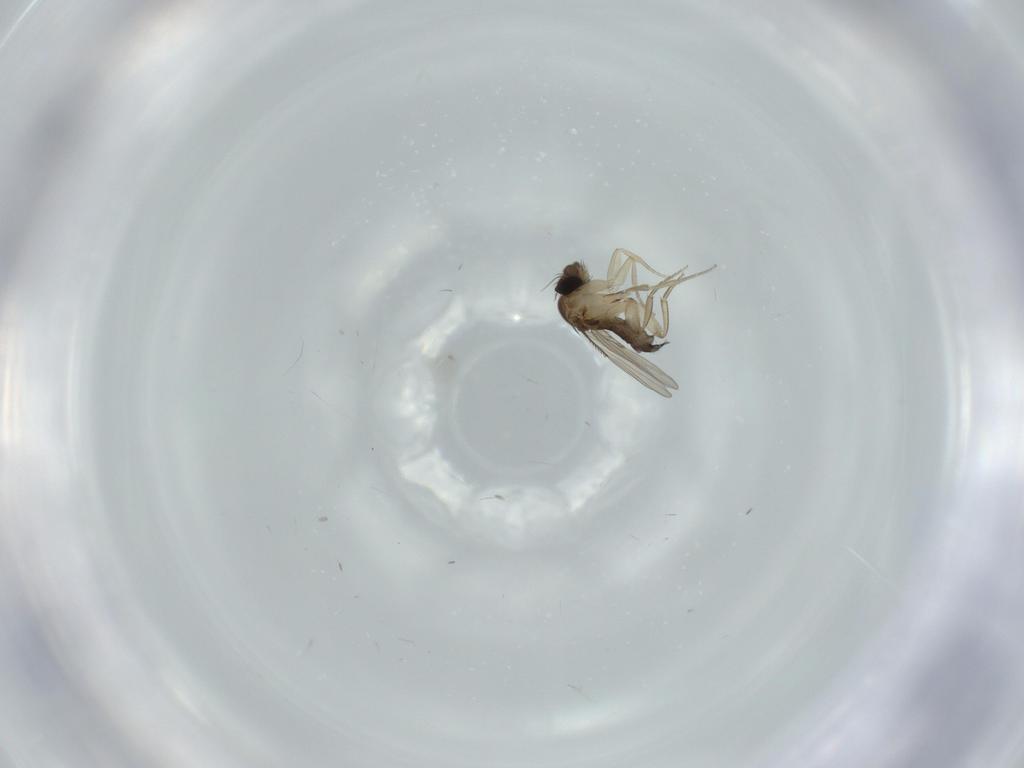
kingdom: Animalia
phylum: Arthropoda
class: Insecta
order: Diptera
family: Phoridae
